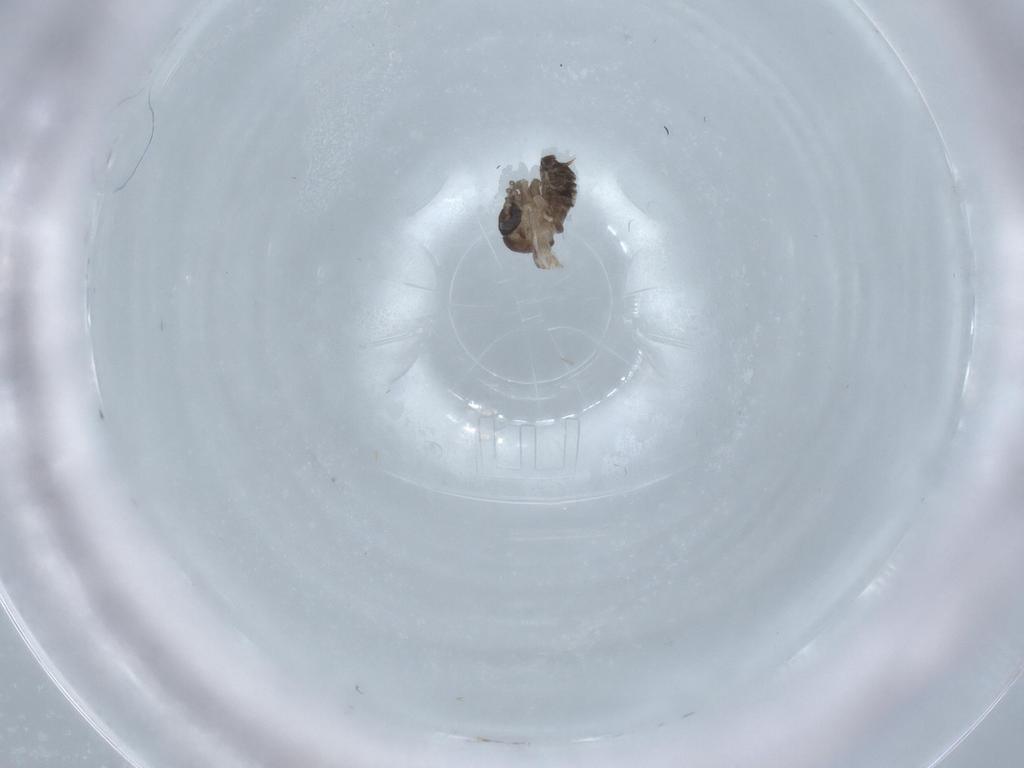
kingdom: Animalia
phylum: Arthropoda
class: Insecta
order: Diptera
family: Psychodidae
